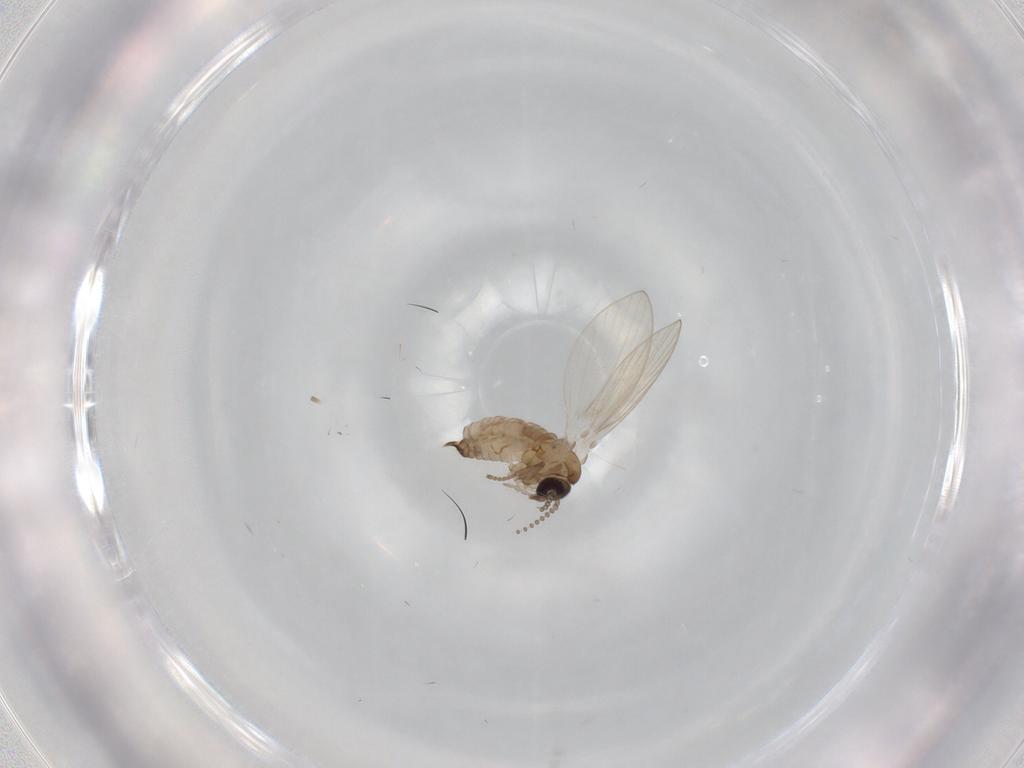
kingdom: Animalia
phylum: Arthropoda
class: Insecta
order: Diptera
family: Psychodidae
